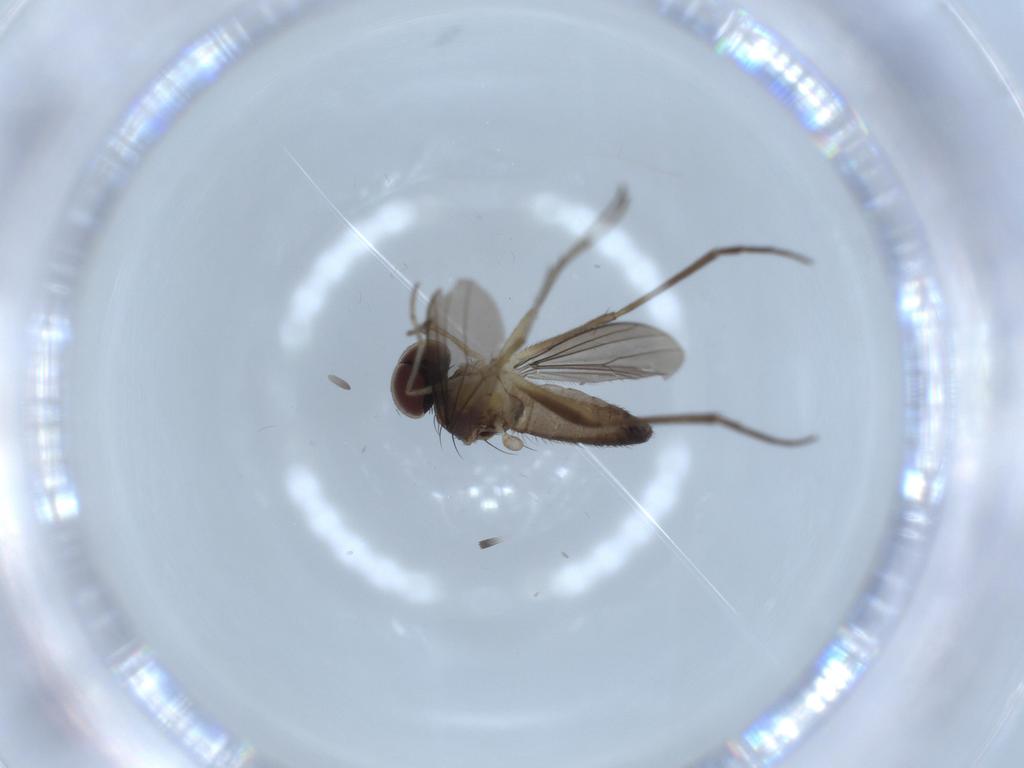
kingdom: Animalia
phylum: Arthropoda
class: Insecta
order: Diptera
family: Dolichopodidae
